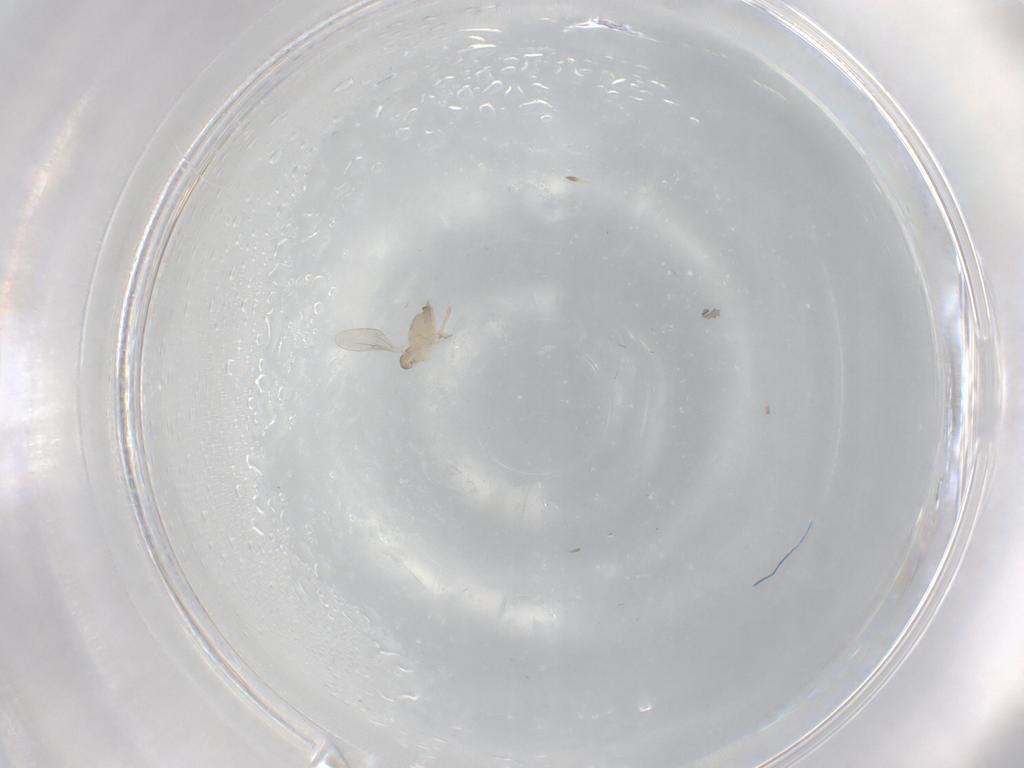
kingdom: Animalia
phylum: Arthropoda
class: Insecta
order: Diptera
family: Cecidomyiidae
